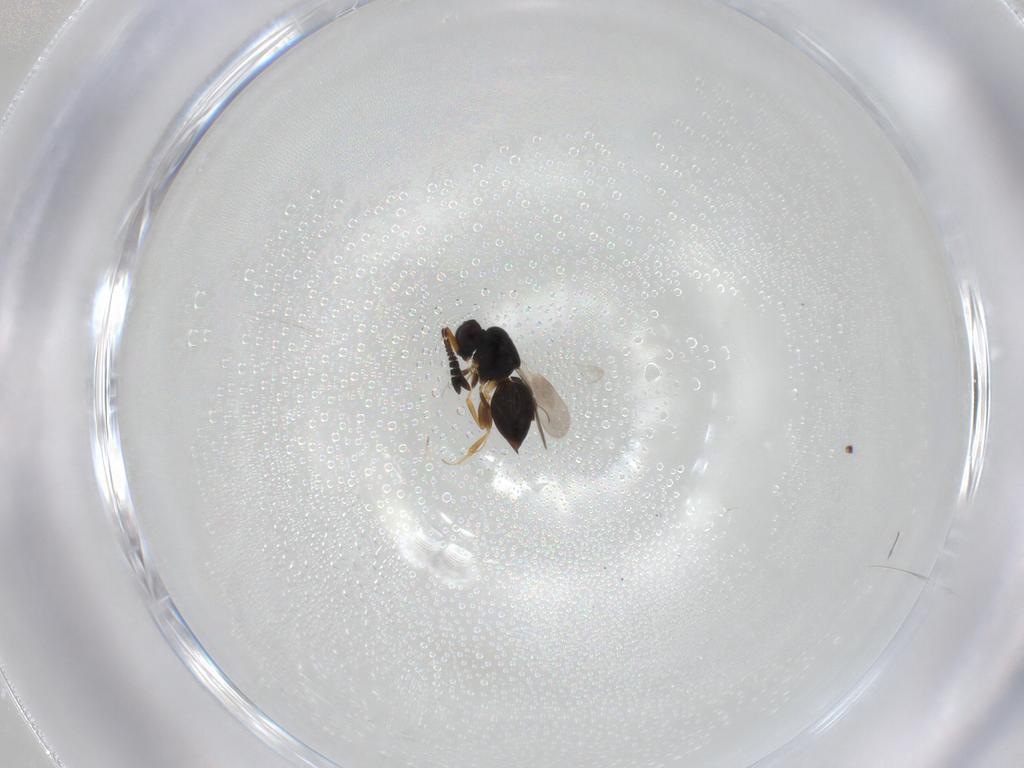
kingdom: Animalia
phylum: Arthropoda
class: Insecta
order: Hymenoptera
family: Ceraphronidae
